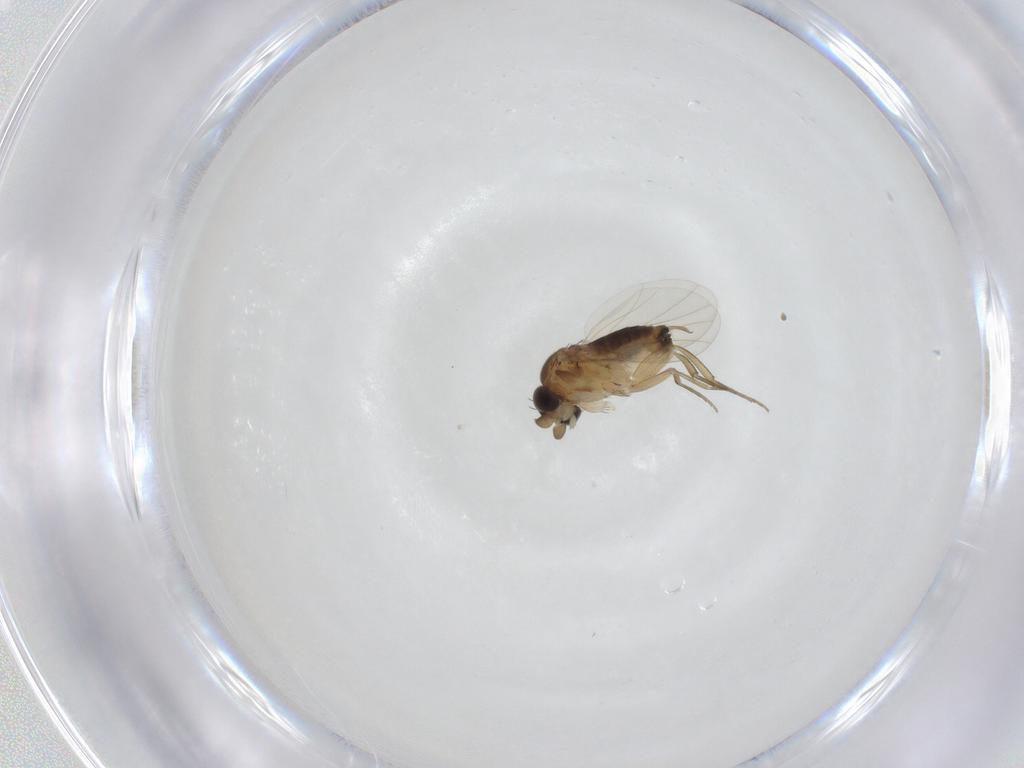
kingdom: Animalia
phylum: Arthropoda
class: Insecta
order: Diptera
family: Phoridae
